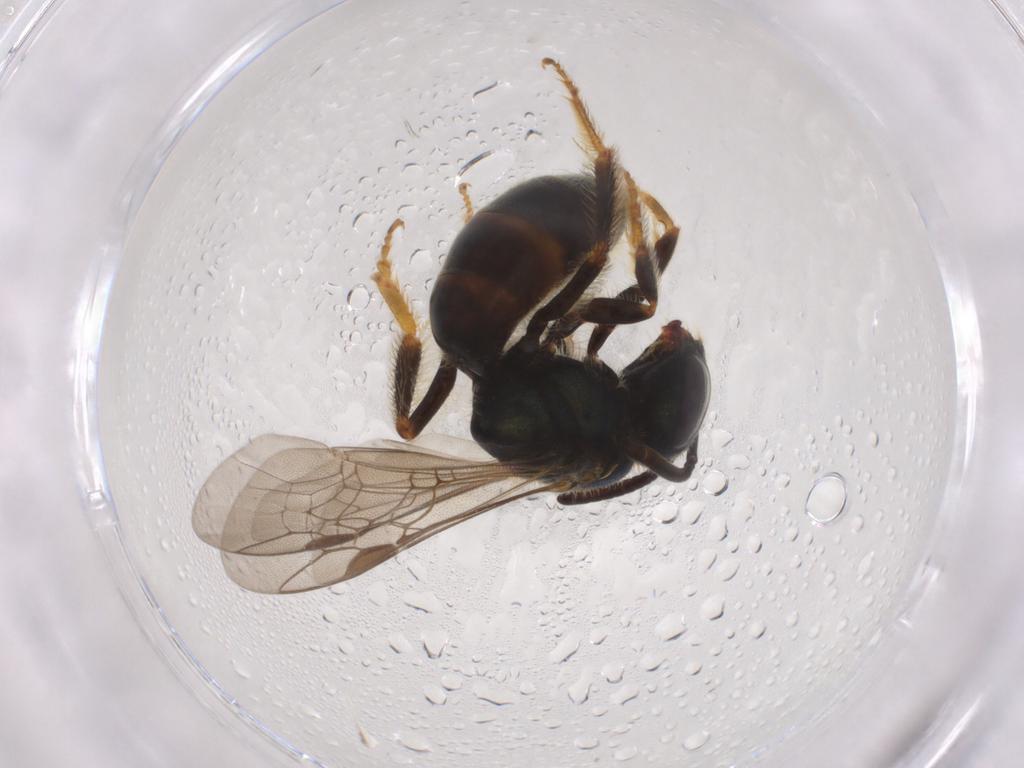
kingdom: Animalia
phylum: Arthropoda
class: Insecta
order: Hymenoptera
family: Halictidae
